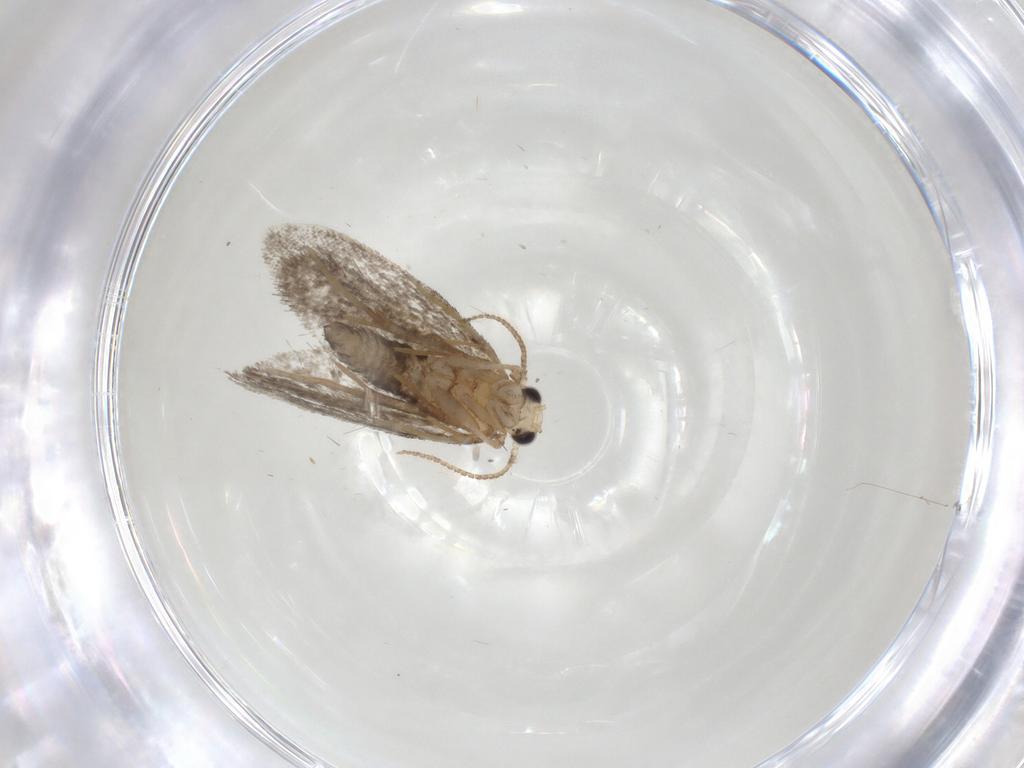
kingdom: Animalia
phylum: Arthropoda
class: Insecta
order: Lepidoptera
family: Psychidae
